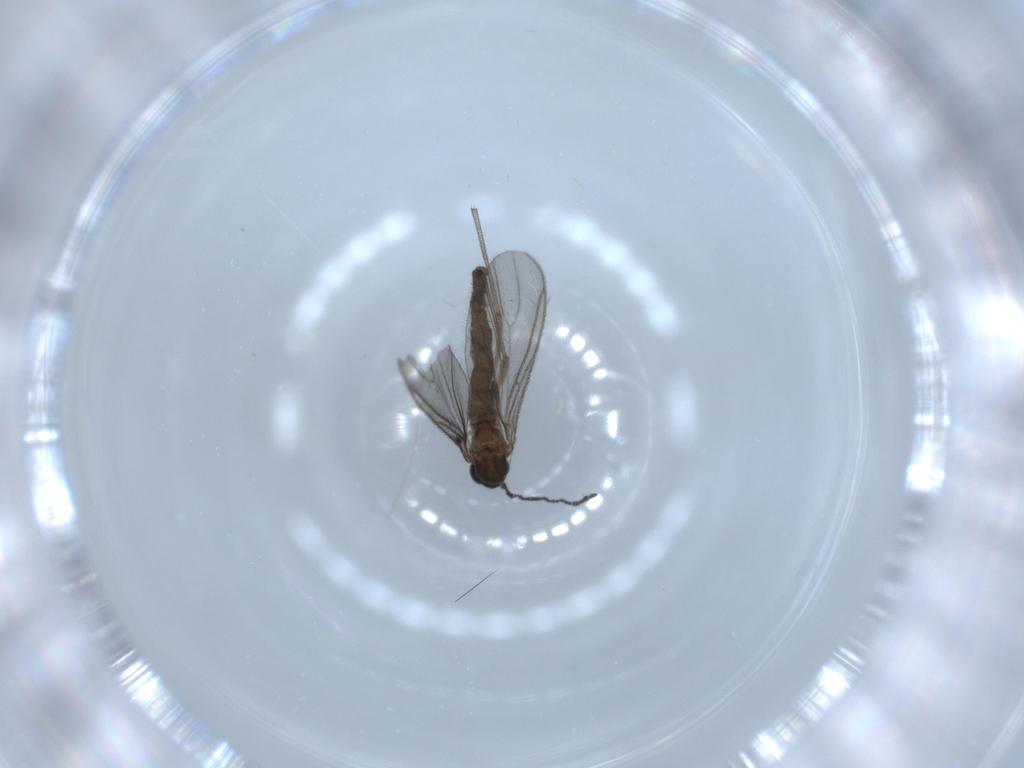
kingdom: Animalia
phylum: Arthropoda
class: Insecta
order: Diptera
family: Sciaridae
